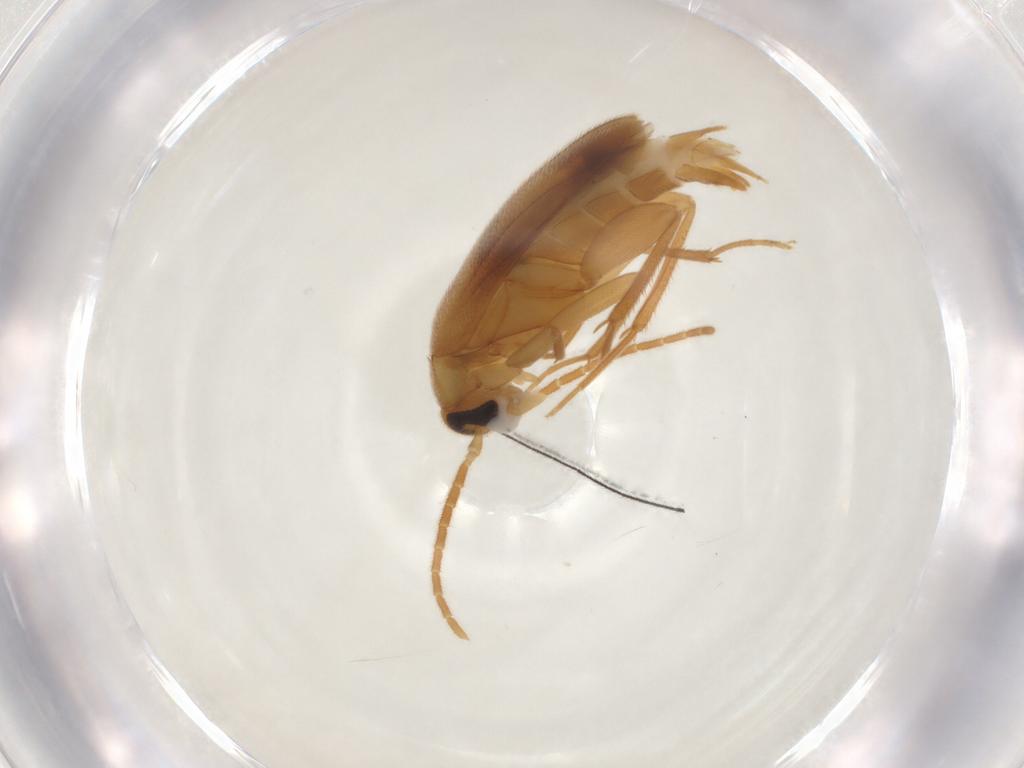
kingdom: Animalia
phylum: Arthropoda
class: Insecta
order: Coleoptera
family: Scraptiidae
